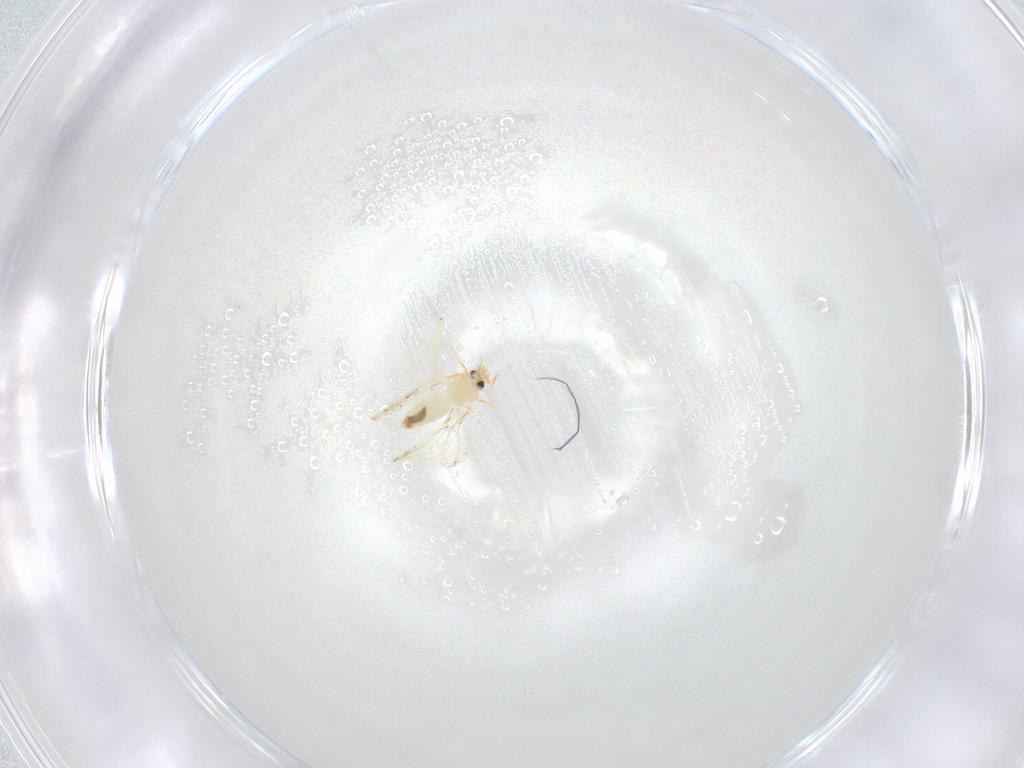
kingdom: Animalia
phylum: Arthropoda
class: Insecta
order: Hemiptera
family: Aleyrodidae
